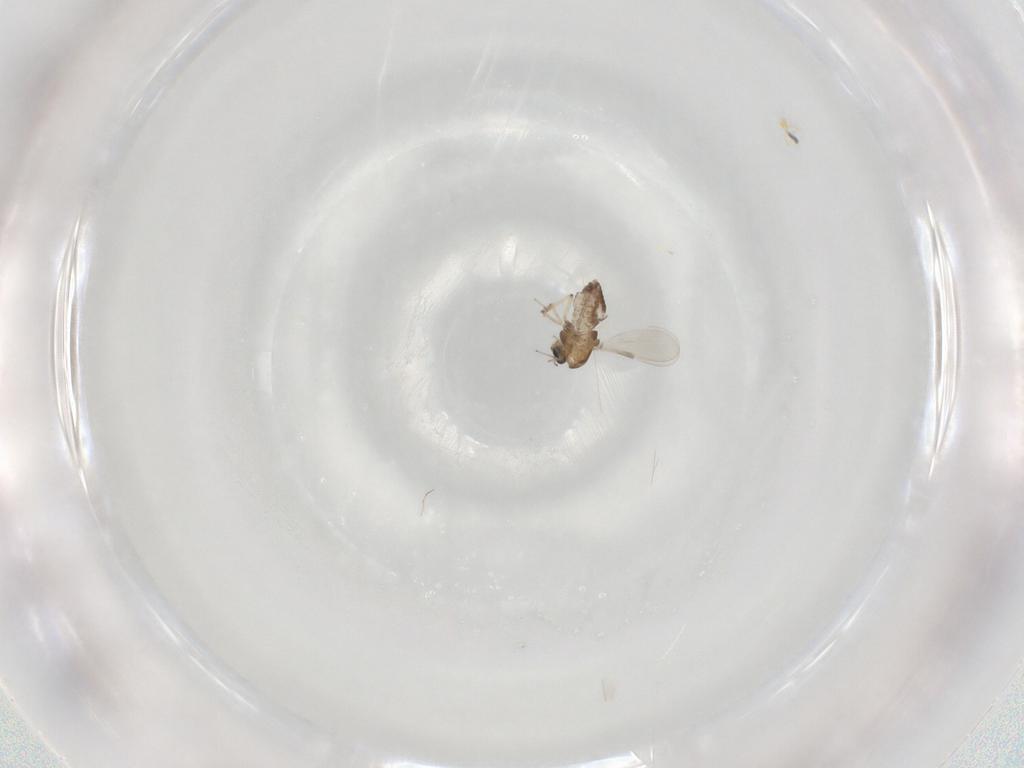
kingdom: Animalia
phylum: Arthropoda
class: Insecta
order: Diptera
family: Chironomidae
